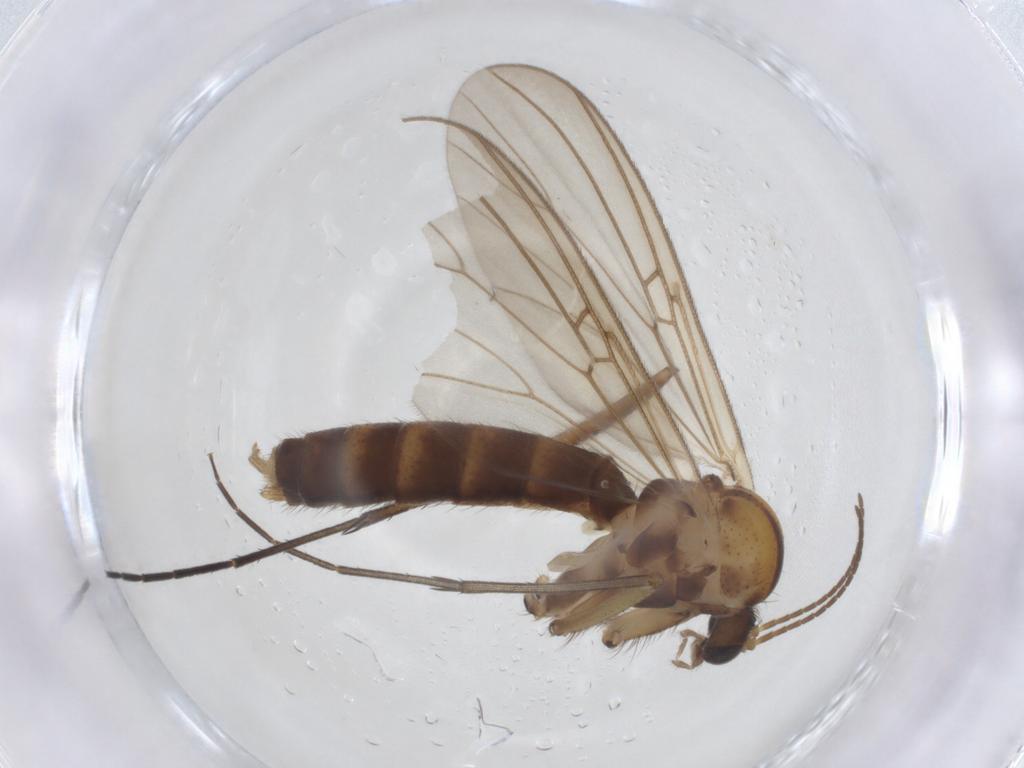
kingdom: Animalia
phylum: Arthropoda
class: Insecta
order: Diptera
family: Mycetophilidae
